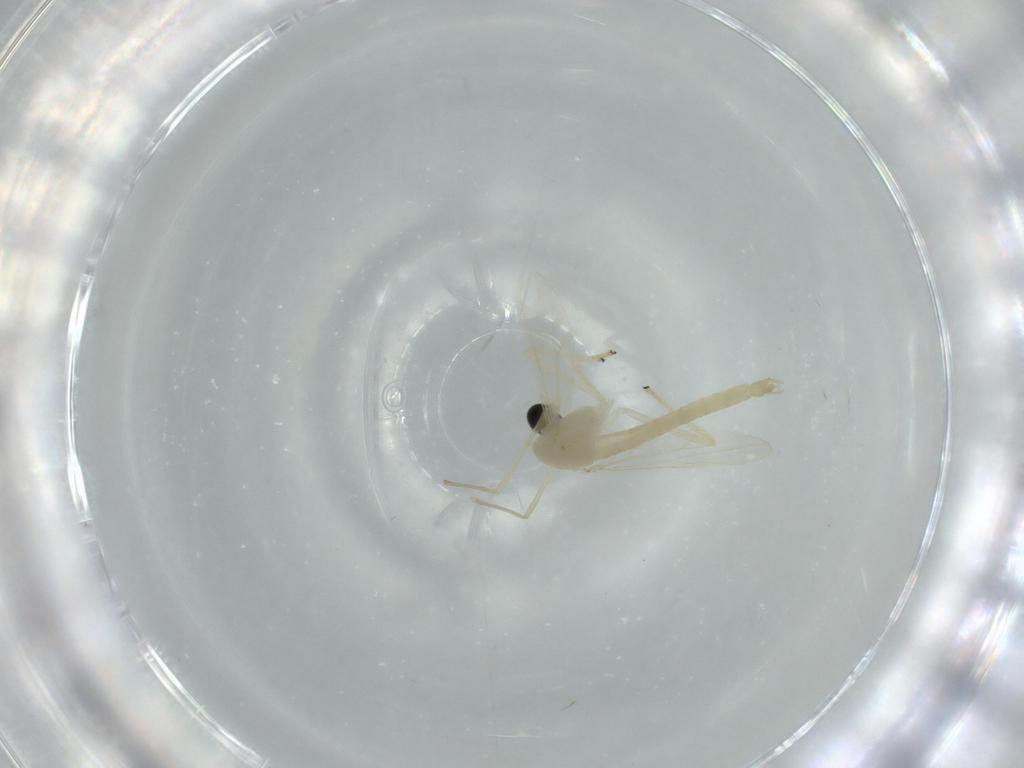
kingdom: Animalia
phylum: Arthropoda
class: Insecta
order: Diptera
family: Chironomidae
